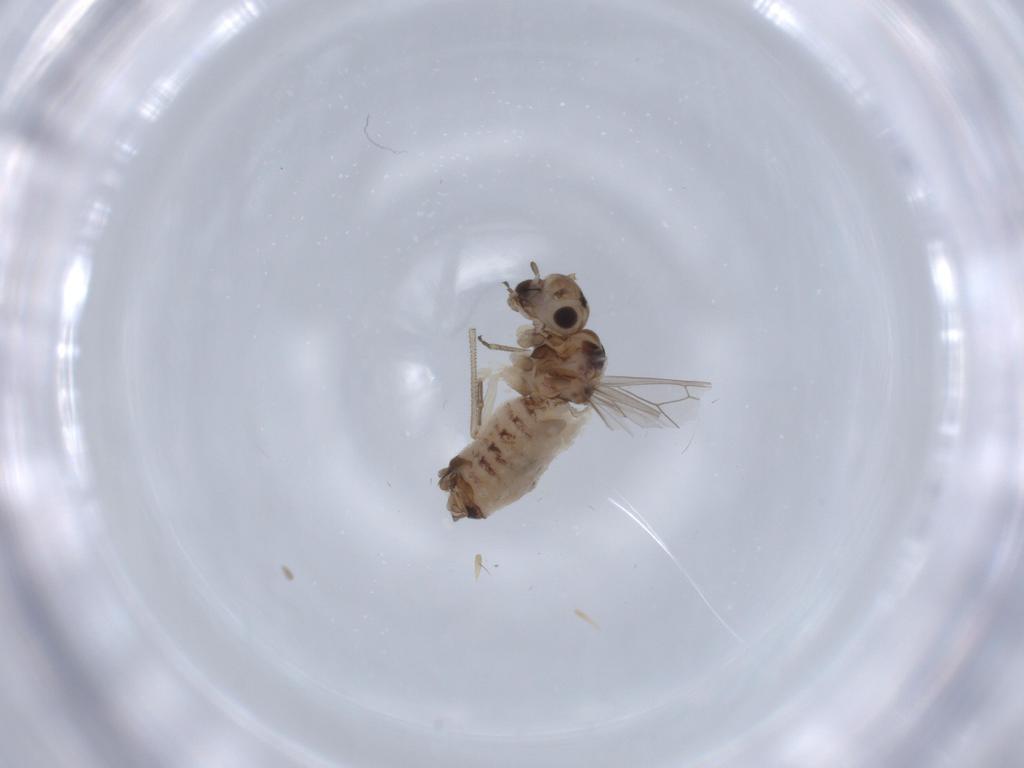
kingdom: Animalia
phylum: Arthropoda
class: Insecta
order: Psocodea
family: Peripsocidae
